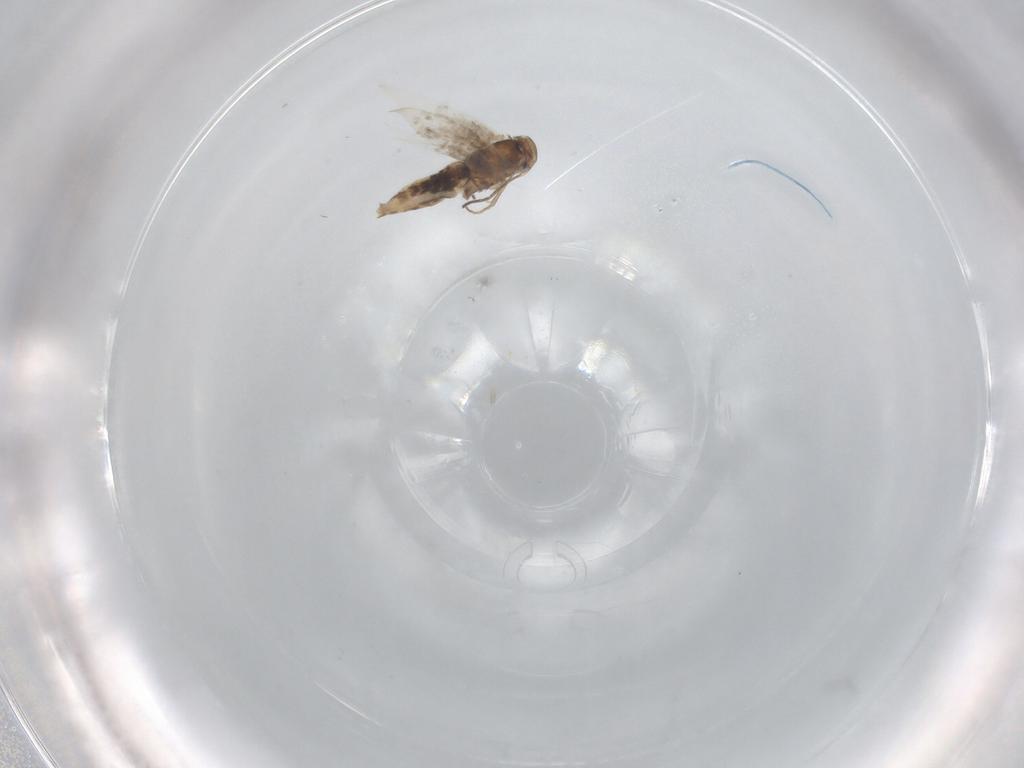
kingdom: Animalia
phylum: Arthropoda
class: Insecta
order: Lepidoptera
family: Lyonetiidae
